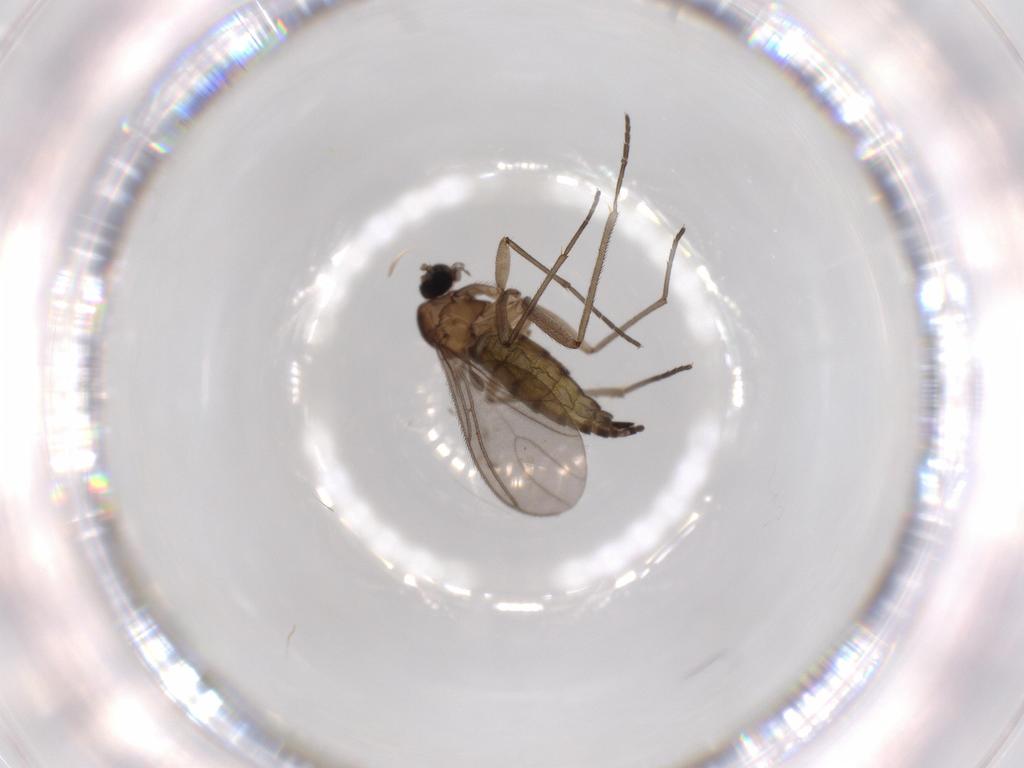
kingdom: Animalia
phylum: Arthropoda
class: Insecta
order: Diptera
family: Sciaridae
